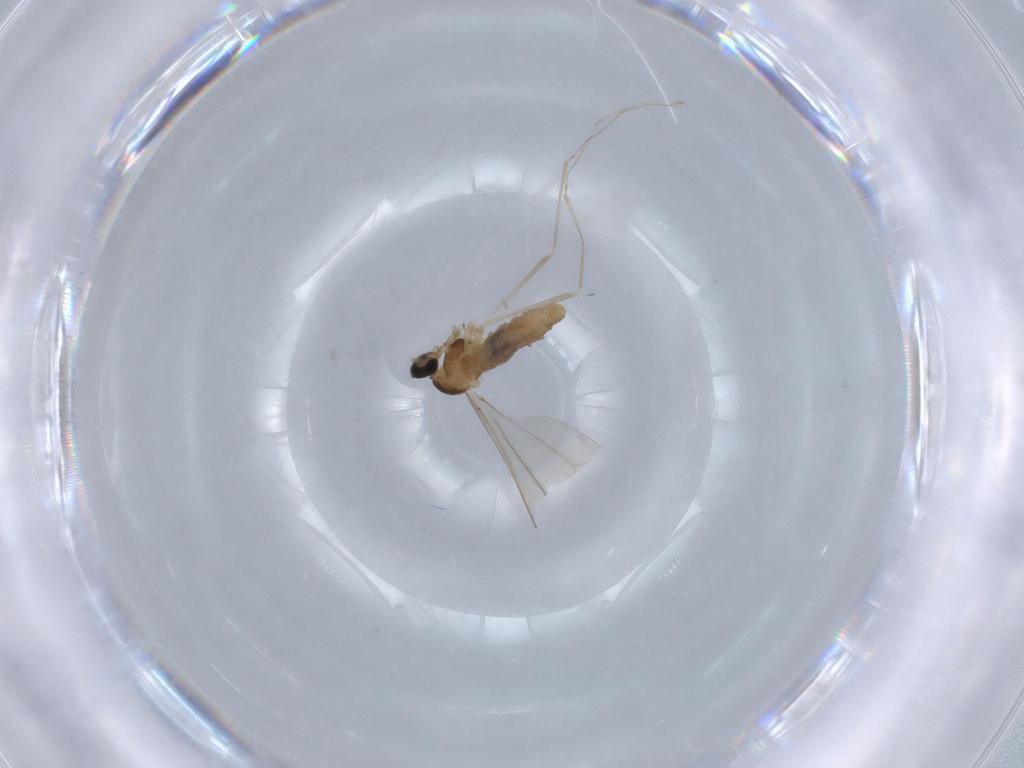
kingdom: Animalia
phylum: Arthropoda
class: Insecta
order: Diptera
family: Cecidomyiidae
